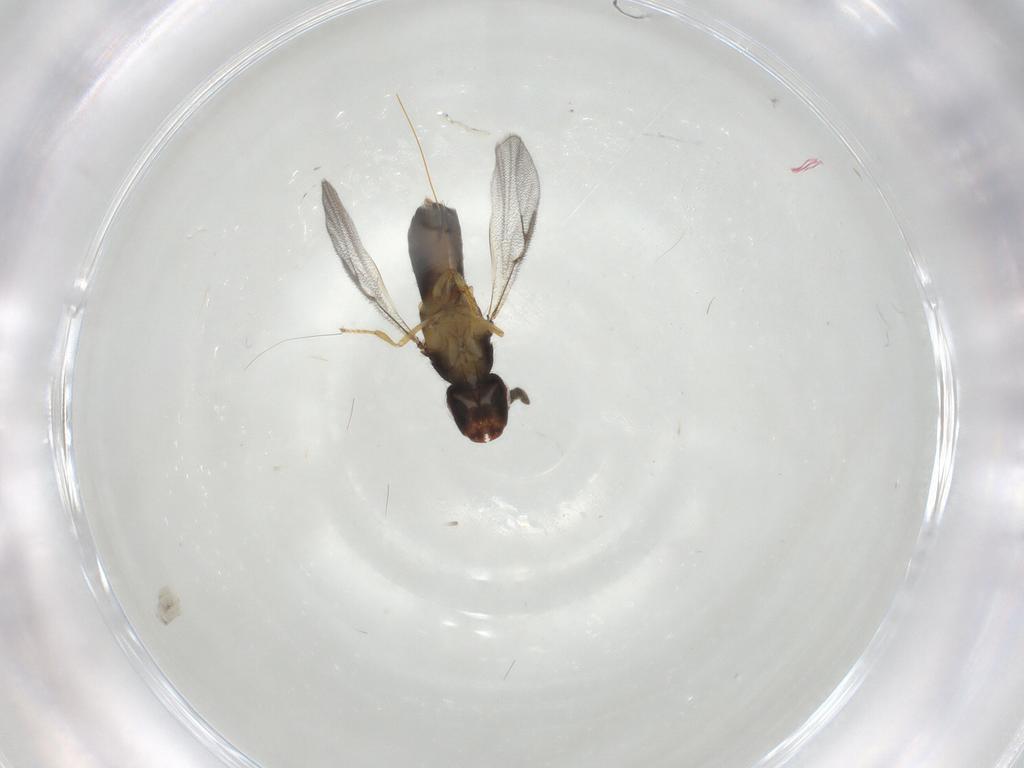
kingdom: Animalia
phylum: Arthropoda
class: Insecta
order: Hymenoptera
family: Agaonidae
